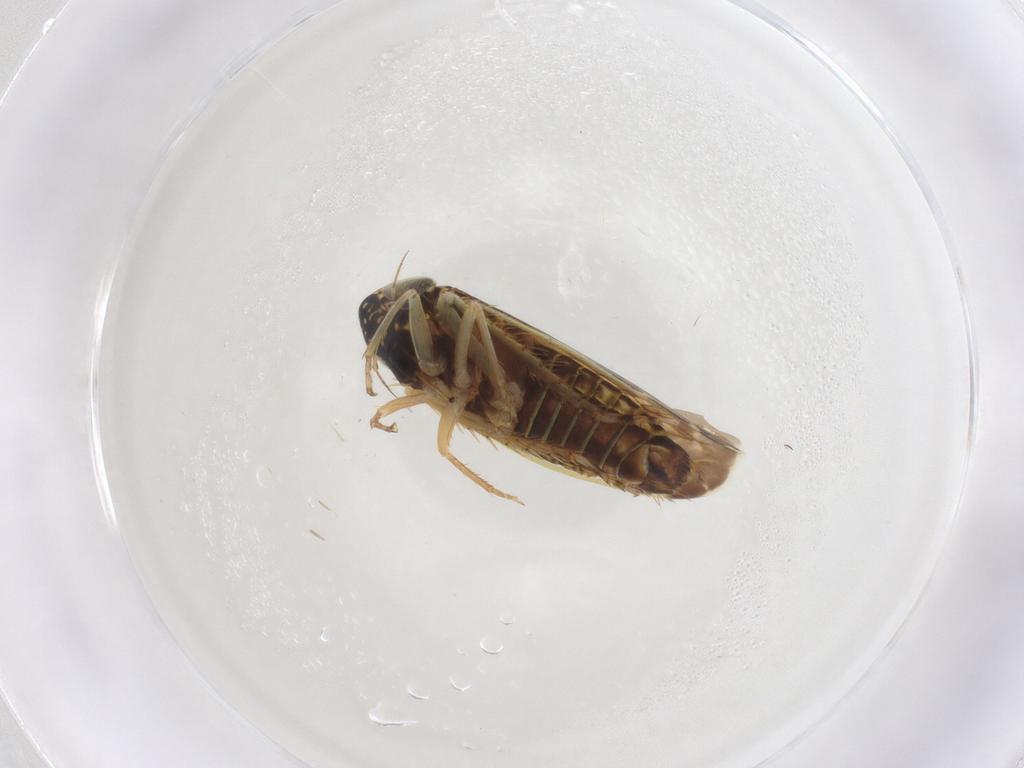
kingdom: Animalia
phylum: Arthropoda
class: Insecta
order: Hemiptera
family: Cicadellidae
